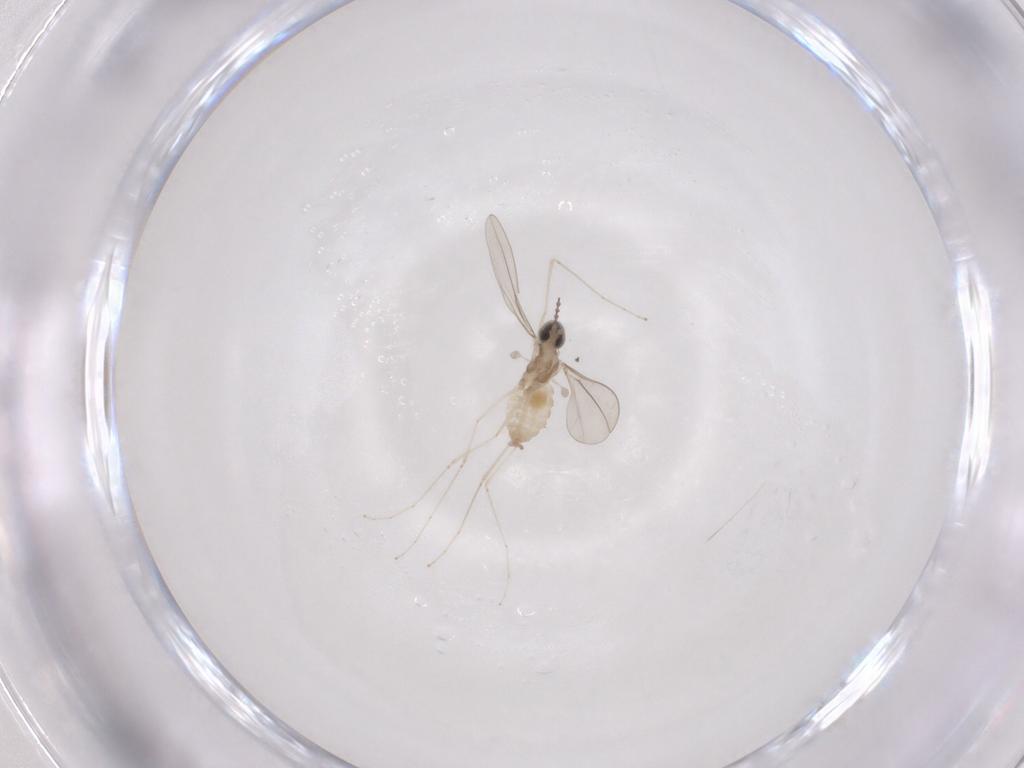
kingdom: Animalia
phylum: Arthropoda
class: Insecta
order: Diptera
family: Cecidomyiidae
